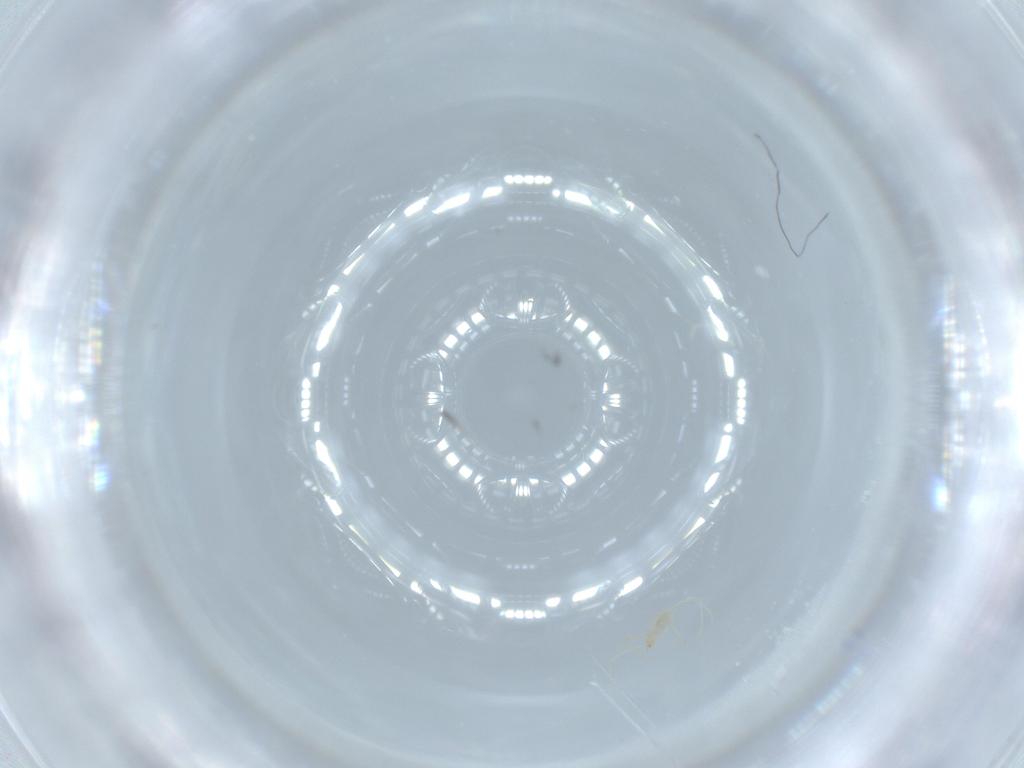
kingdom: Animalia
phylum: Arthropoda
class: Arachnida
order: Trombidiformes
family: Erythraeidae
